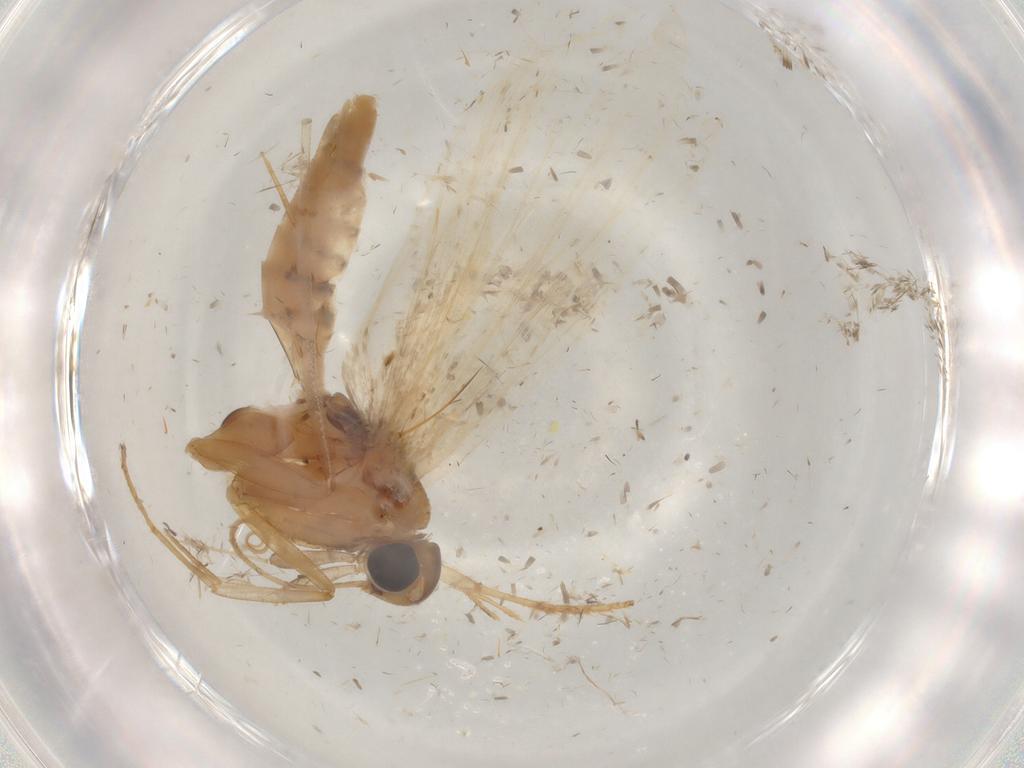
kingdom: Animalia
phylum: Arthropoda
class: Insecta
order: Lepidoptera
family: Gelechiidae
